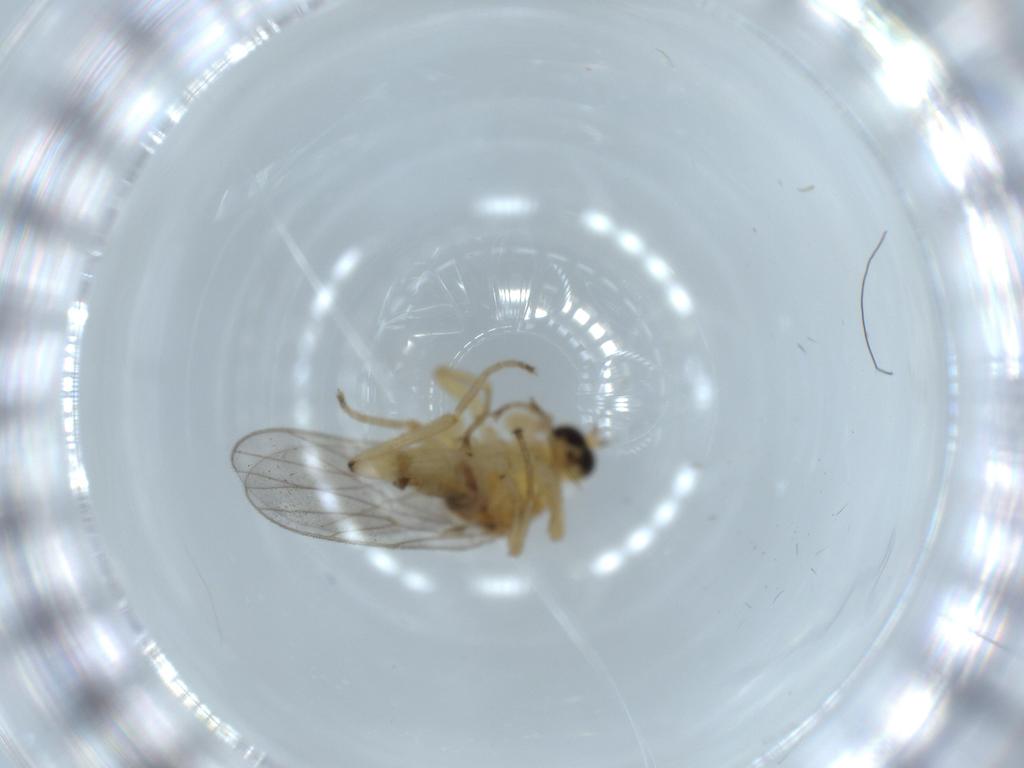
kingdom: Animalia
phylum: Arthropoda
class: Insecta
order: Diptera
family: Hybotidae
